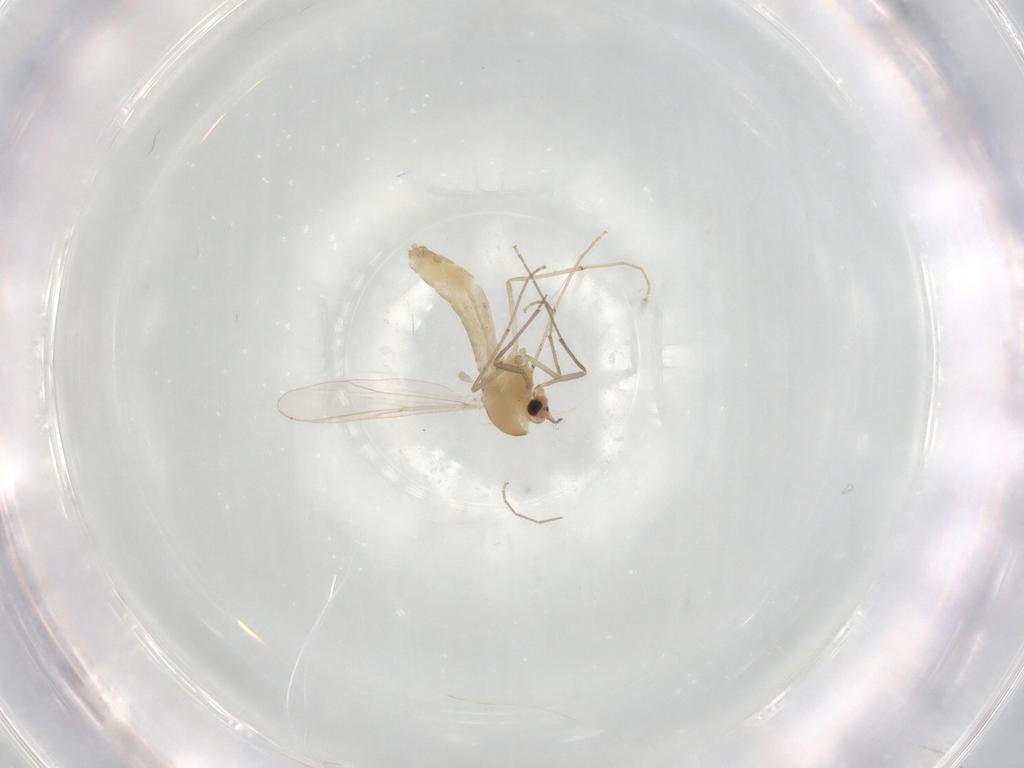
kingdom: Animalia
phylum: Arthropoda
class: Insecta
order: Diptera
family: Chironomidae
